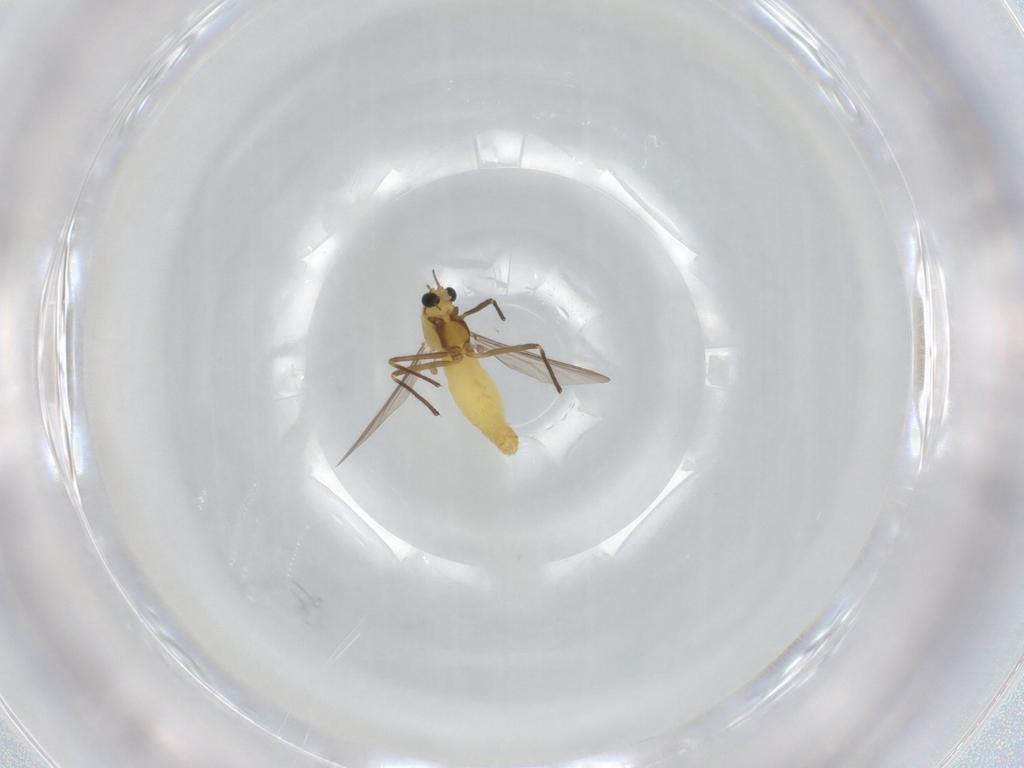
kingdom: Animalia
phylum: Arthropoda
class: Insecta
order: Diptera
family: Chironomidae
